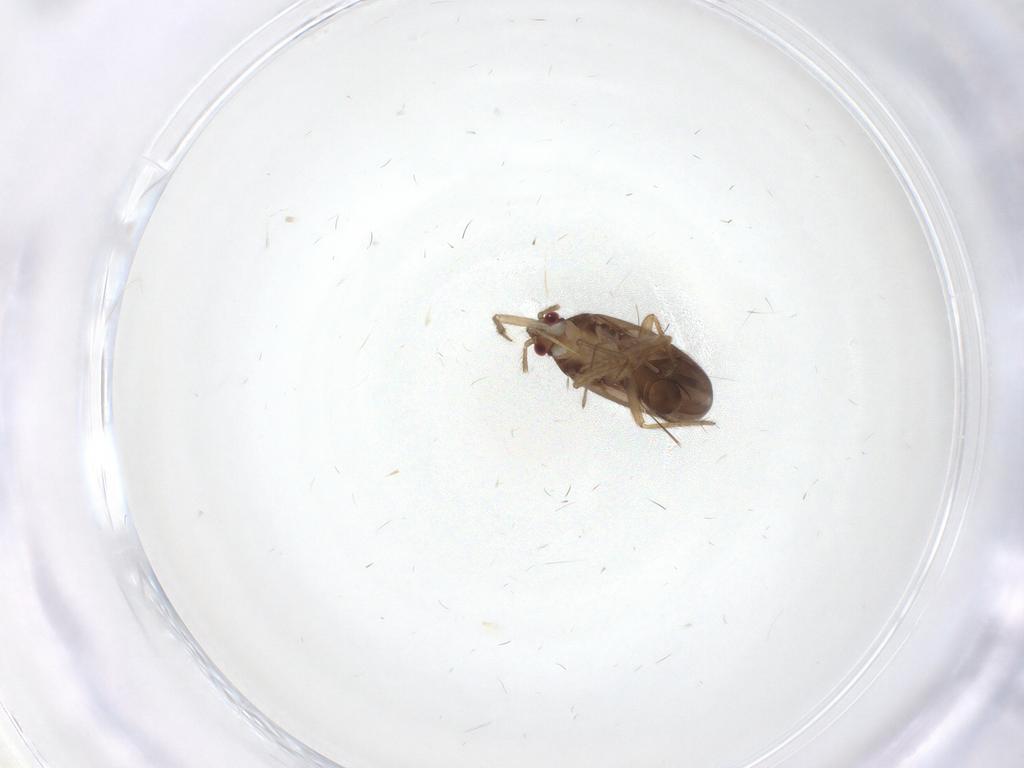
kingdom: Animalia
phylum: Arthropoda
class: Insecta
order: Hemiptera
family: Ceratocombidae
